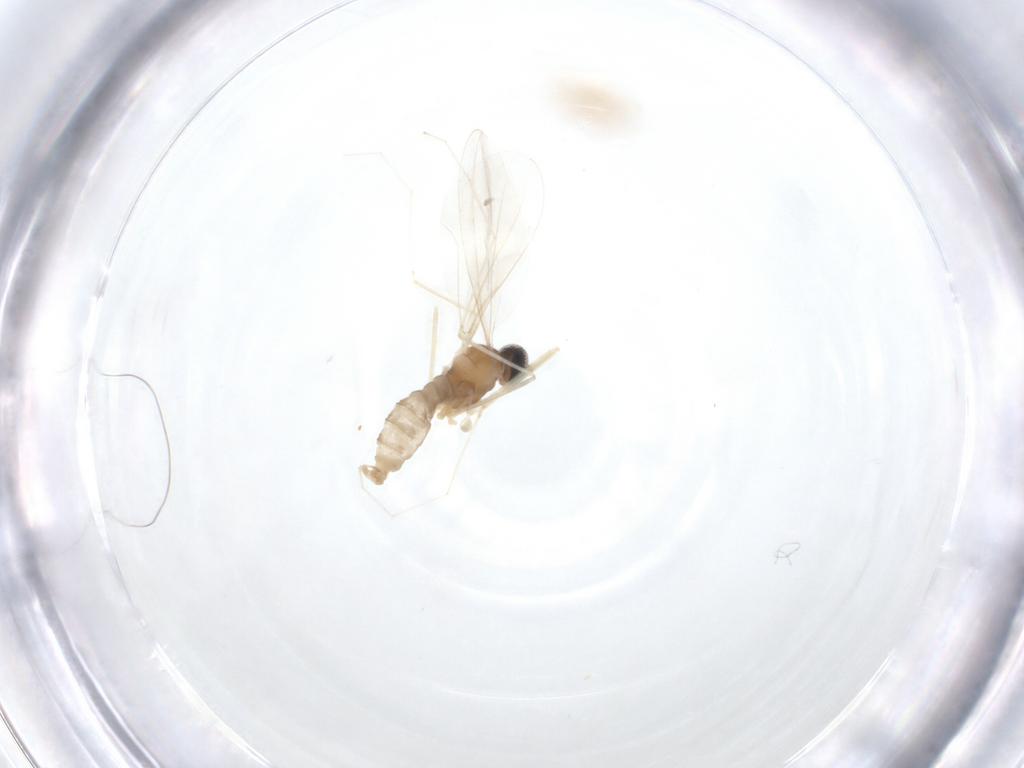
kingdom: Animalia
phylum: Arthropoda
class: Insecta
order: Diptera
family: Cecidomyiidae
